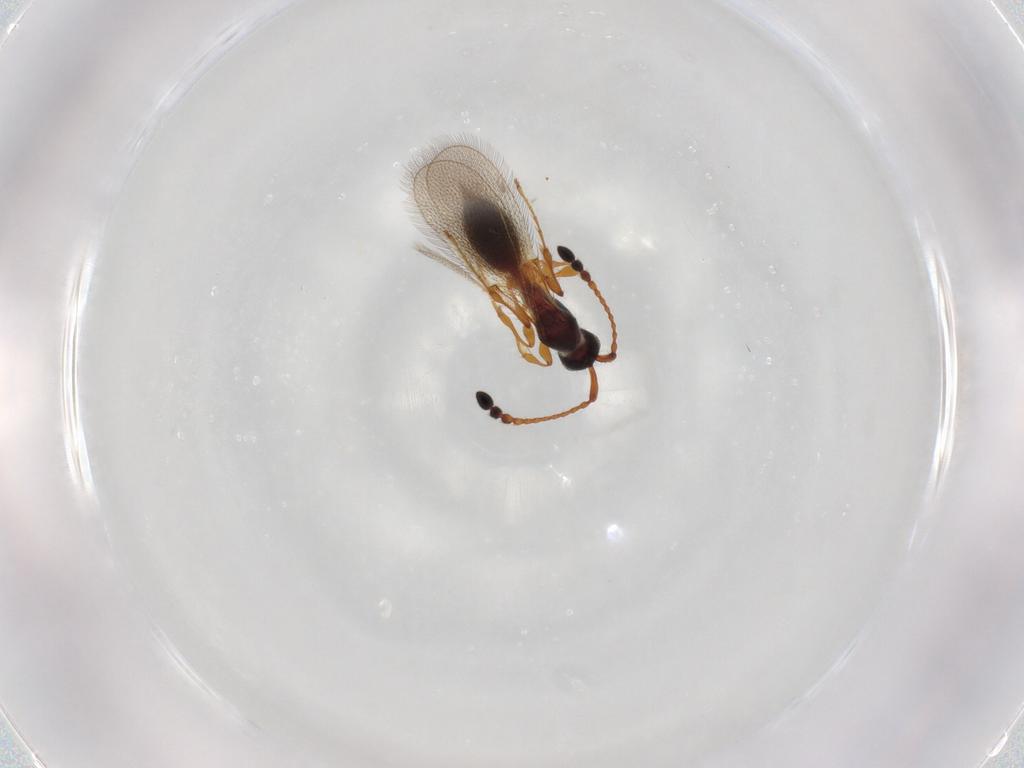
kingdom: Animalia
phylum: Arthropoda
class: Insecta
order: Hymenoptera
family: Diapriidae
